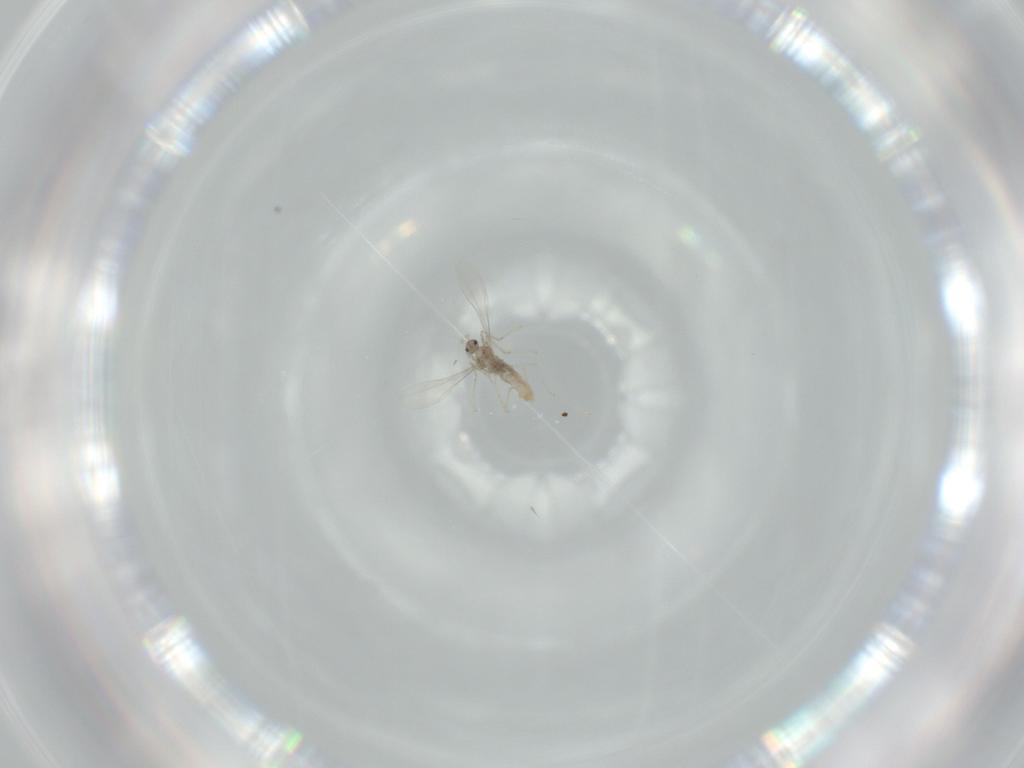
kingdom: Animalia
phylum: Arthropoda
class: Insecta
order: Diptera
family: Cecidomyiidae
